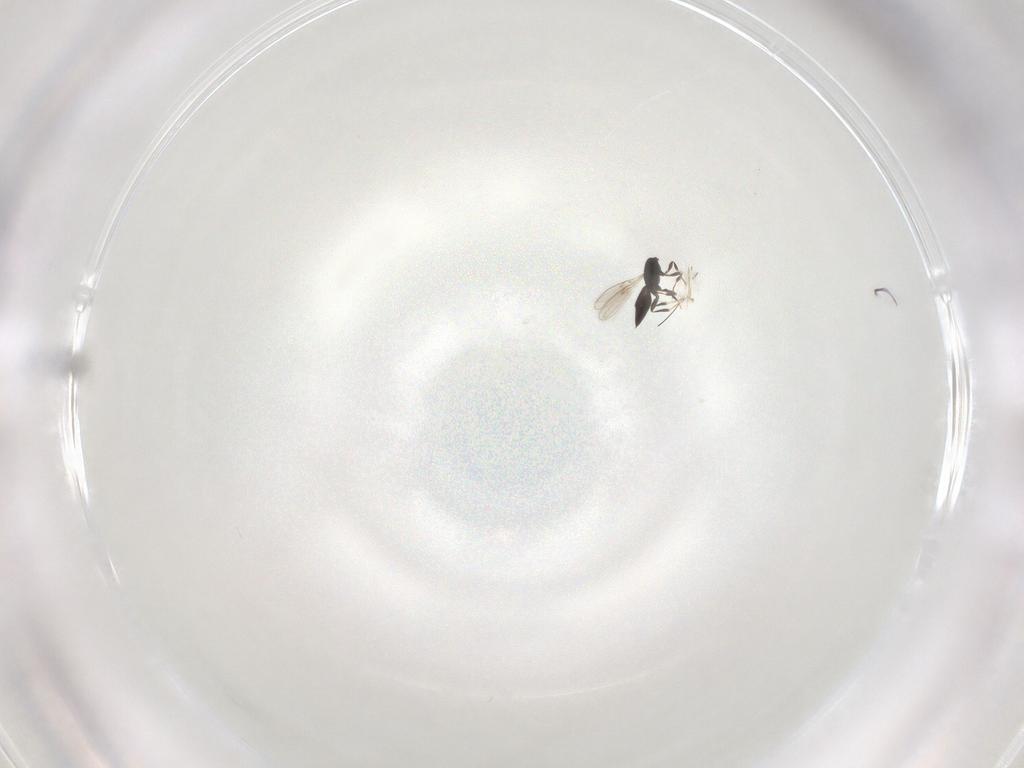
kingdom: Animalia
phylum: Arthropoda
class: Insecta
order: Hymenoptera
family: Scelionidae
